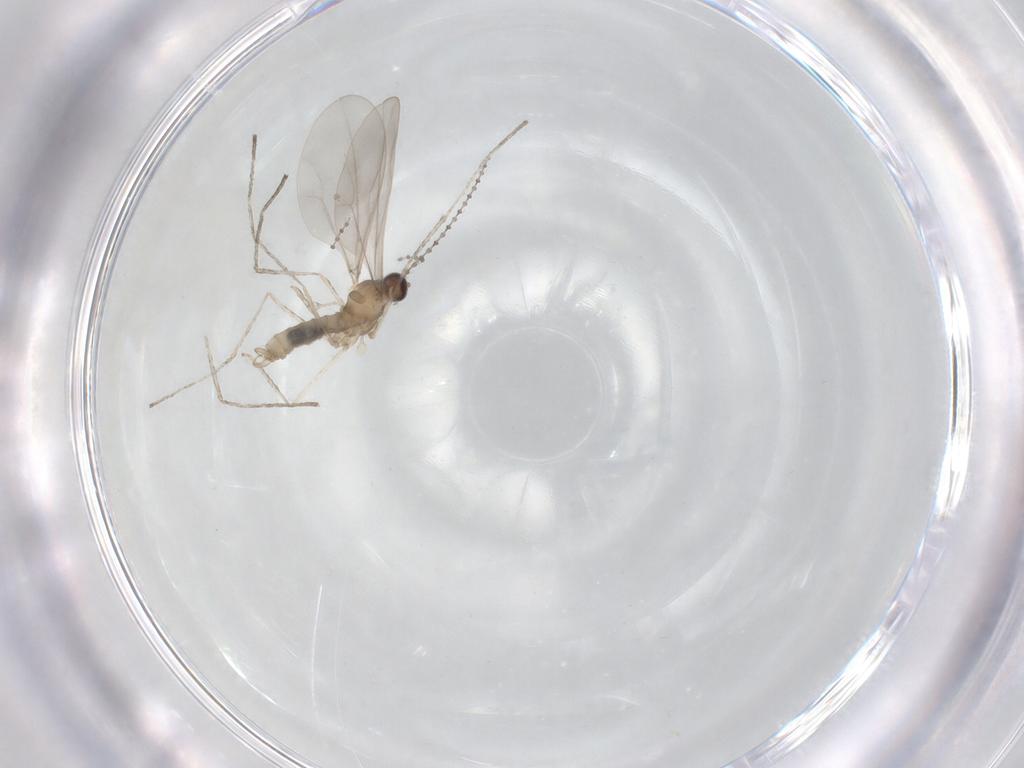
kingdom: Animalia
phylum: Arthropoda
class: Insecta
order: Diptera
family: Cecidomyiidae
